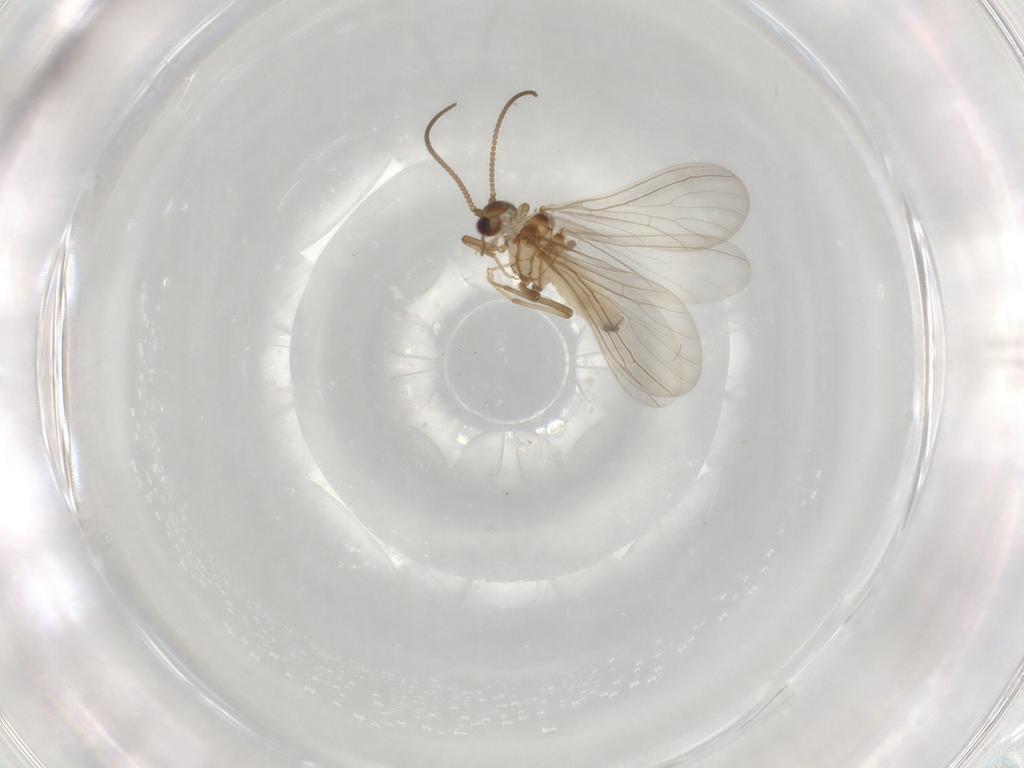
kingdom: Animalia
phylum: Arthropoda
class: Insecta
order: Neuroptera
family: Coniopterygidae
